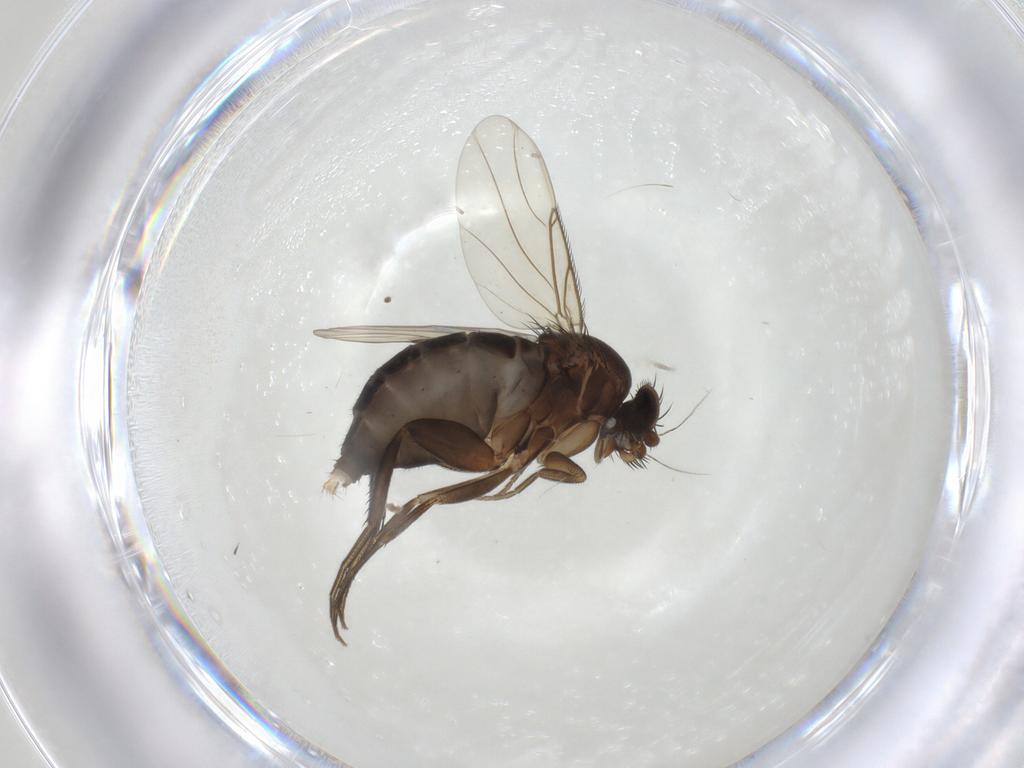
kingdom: Animalia
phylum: Arthropoda
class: Insecta
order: Diptera
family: Phoridae
